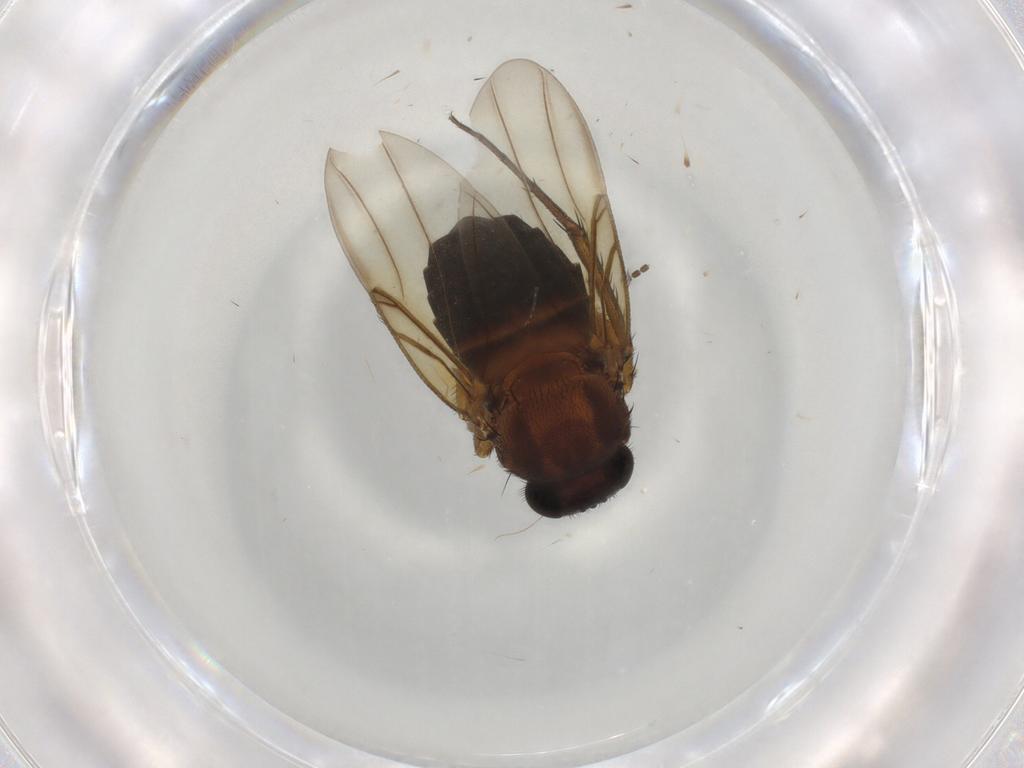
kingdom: Animalia
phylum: Arthropoda
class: Insecta
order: Diptera
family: Sciaridae
